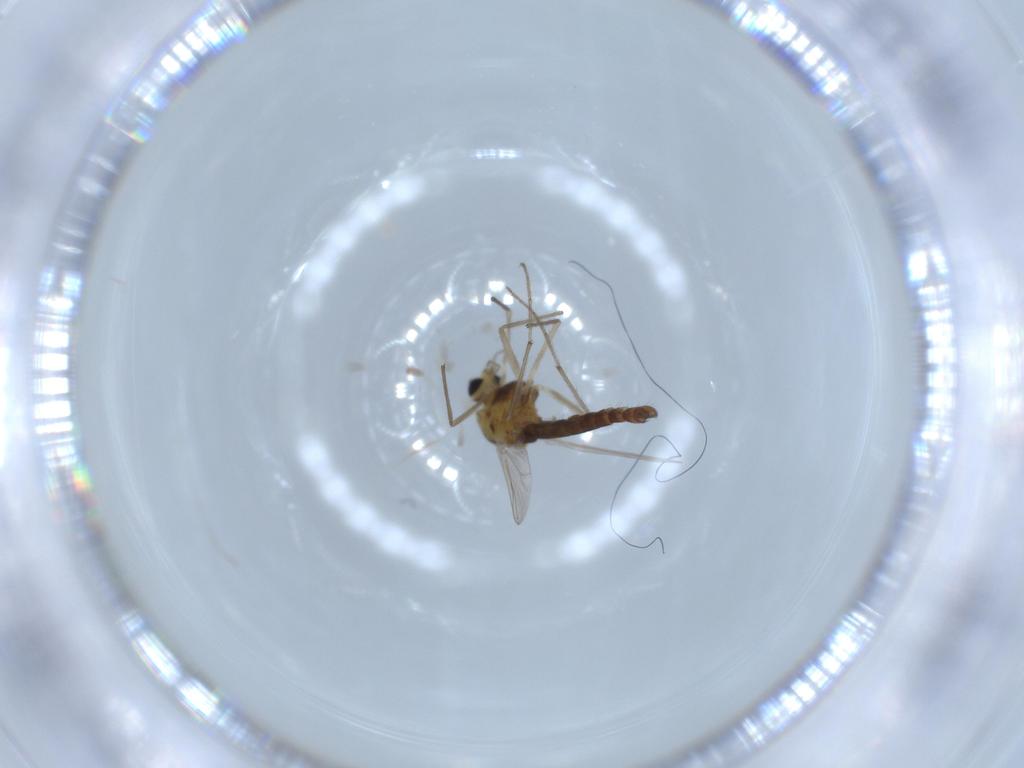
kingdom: Animalia
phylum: Arthropoda
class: Insecta
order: Diptera
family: Chironomidae
